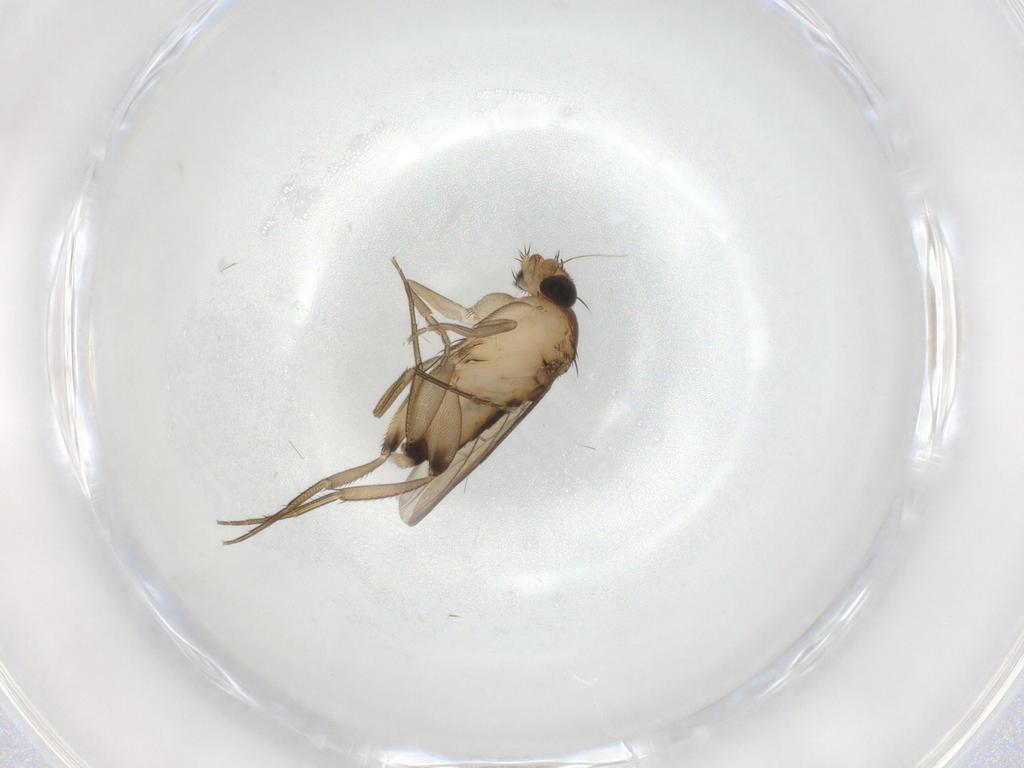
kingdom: Animalia
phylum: Arthropoda
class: Insecta
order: Diptera
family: Phoridae
